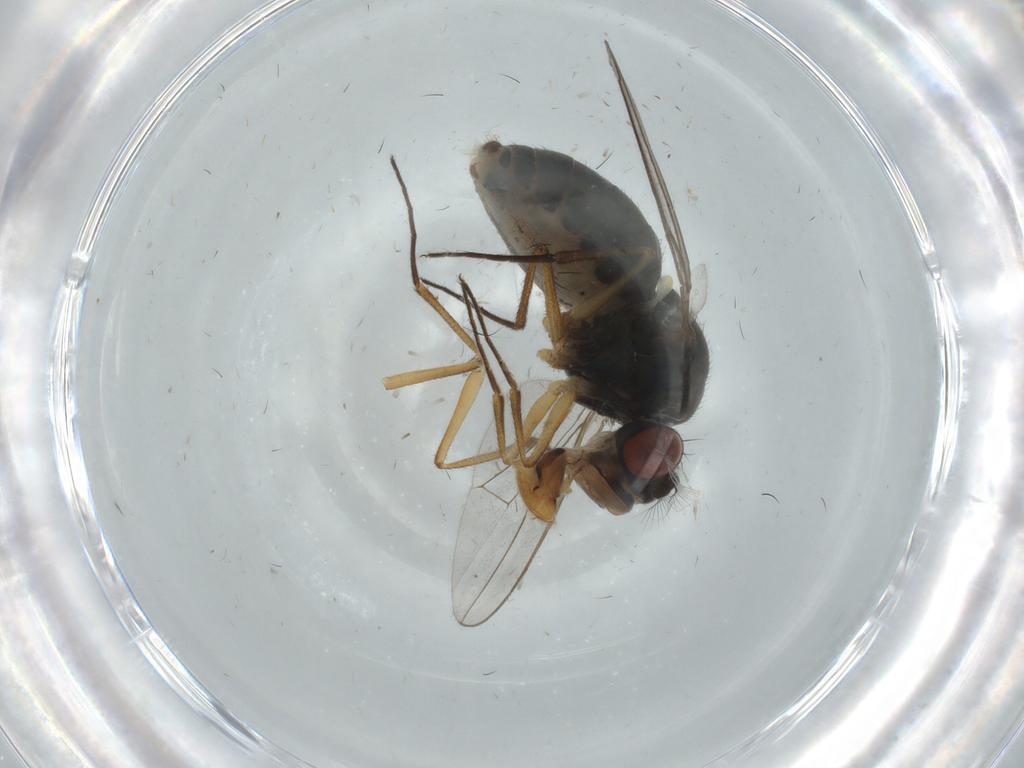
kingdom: Animalia
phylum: Arthropoda
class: Insecta
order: Diptera
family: Ephydridae
